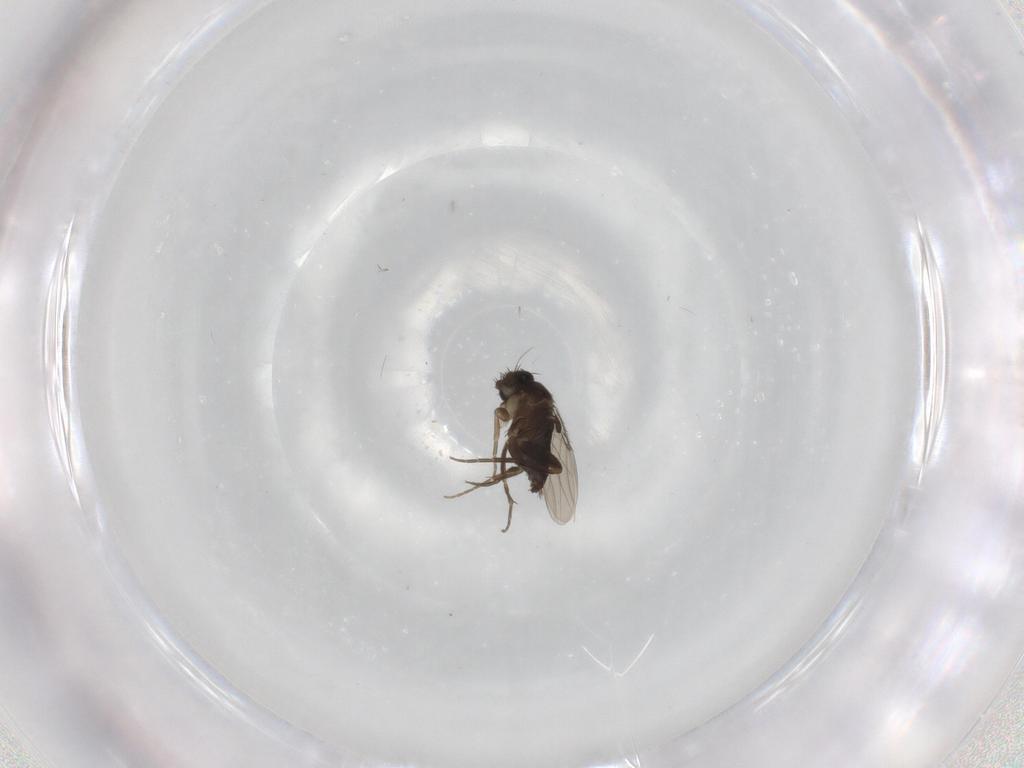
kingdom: Animalia
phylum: Arthropoda
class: Insecta
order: Diptera
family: Phoridae
